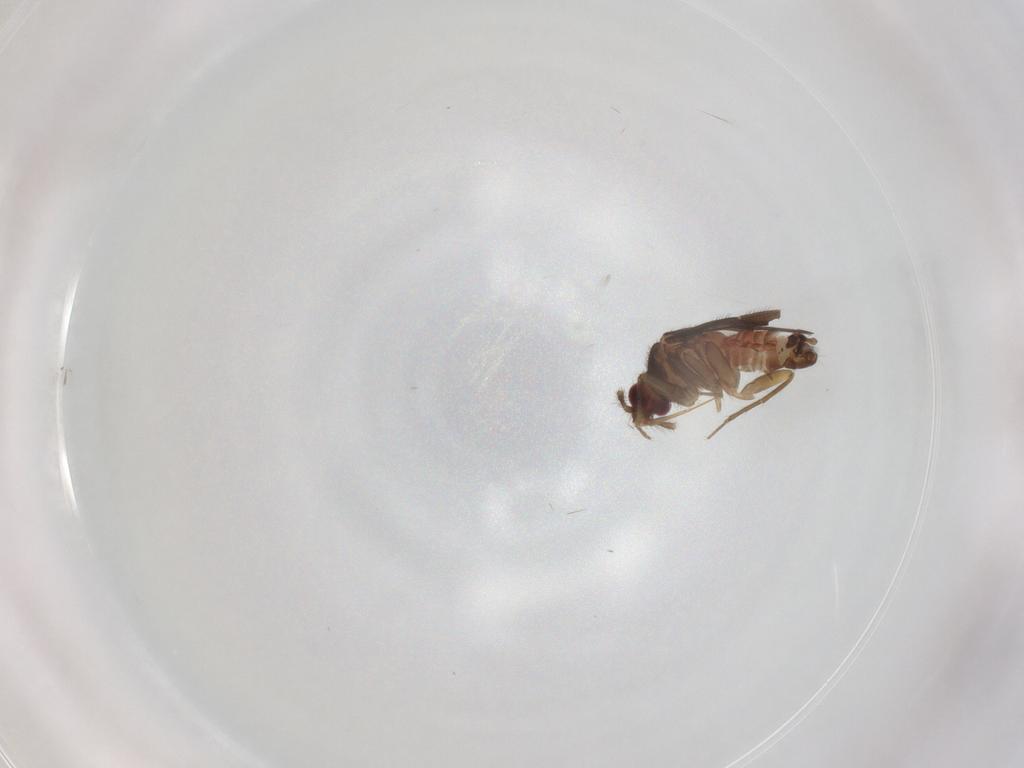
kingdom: Animalia
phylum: Arthropoda
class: Insecta
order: Hemiptera
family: Ceratocombidae
